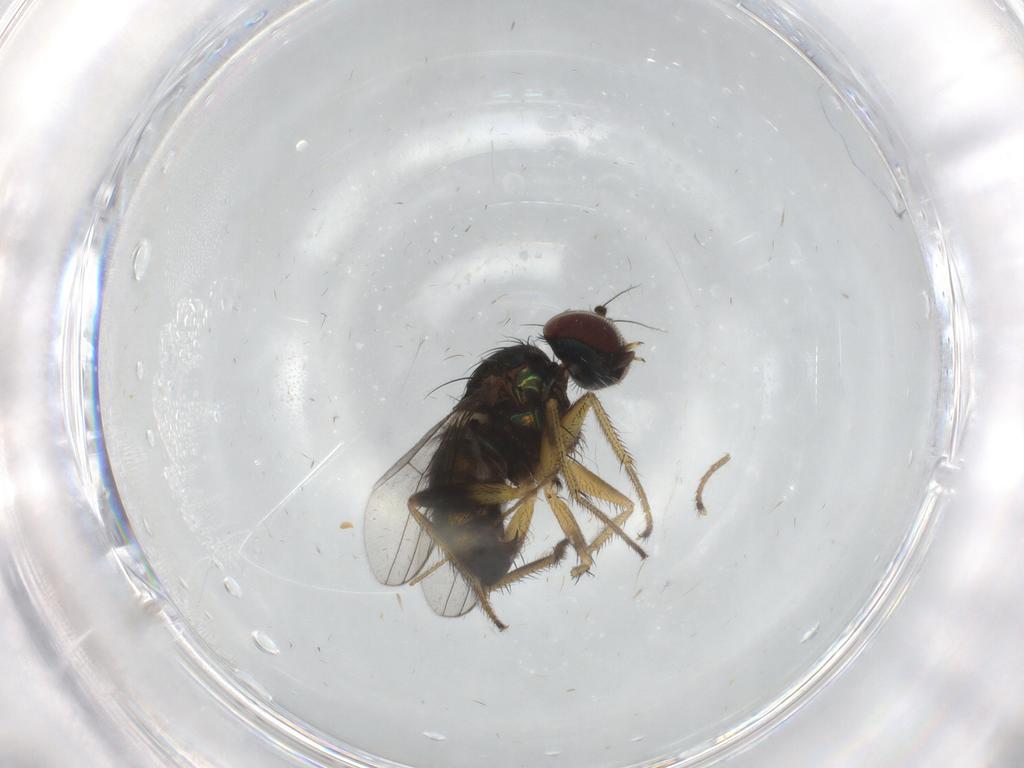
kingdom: Animalia
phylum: Arthropoda
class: Insecta
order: Diptera
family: Dolichopodidae
